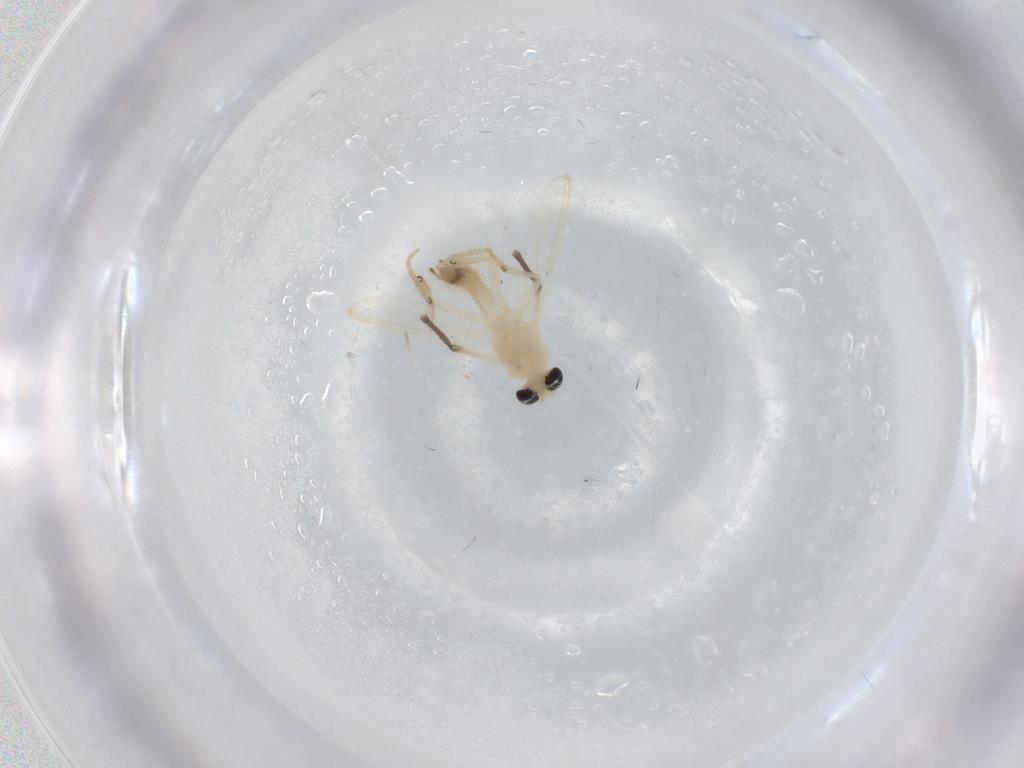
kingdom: Animalia
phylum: Arthropoda
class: Insecta
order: Diptera
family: Chironomidae
